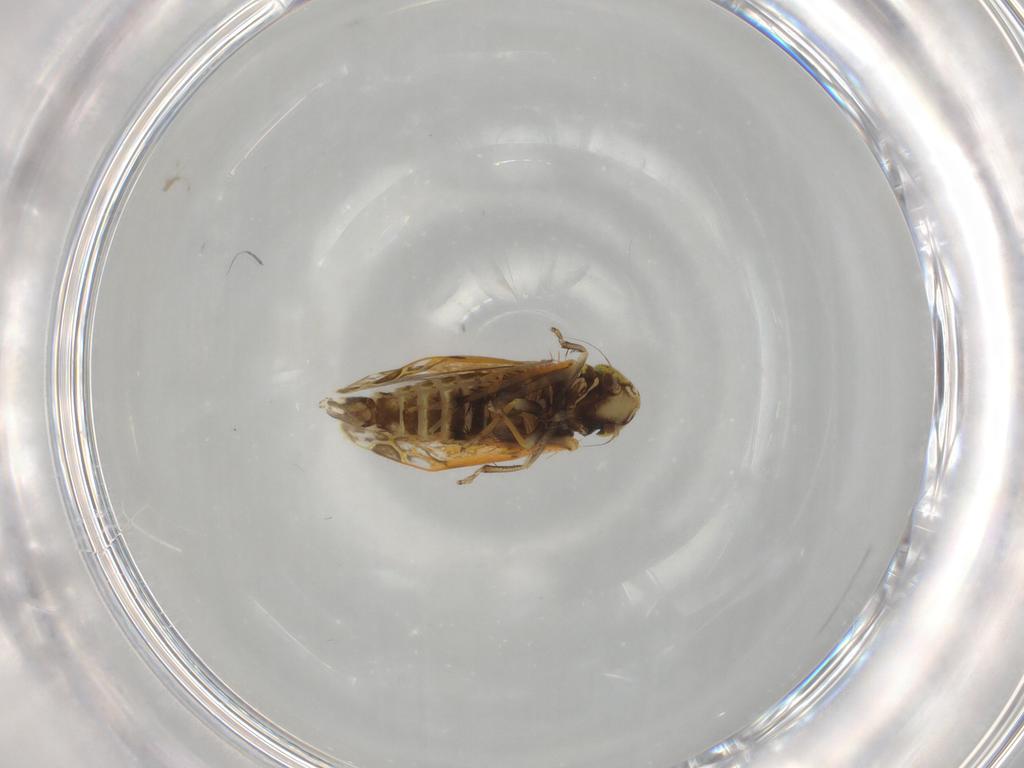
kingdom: Animalia
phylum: Arthropoda
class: Insecta
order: Hemiptera
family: Cicadellidae
